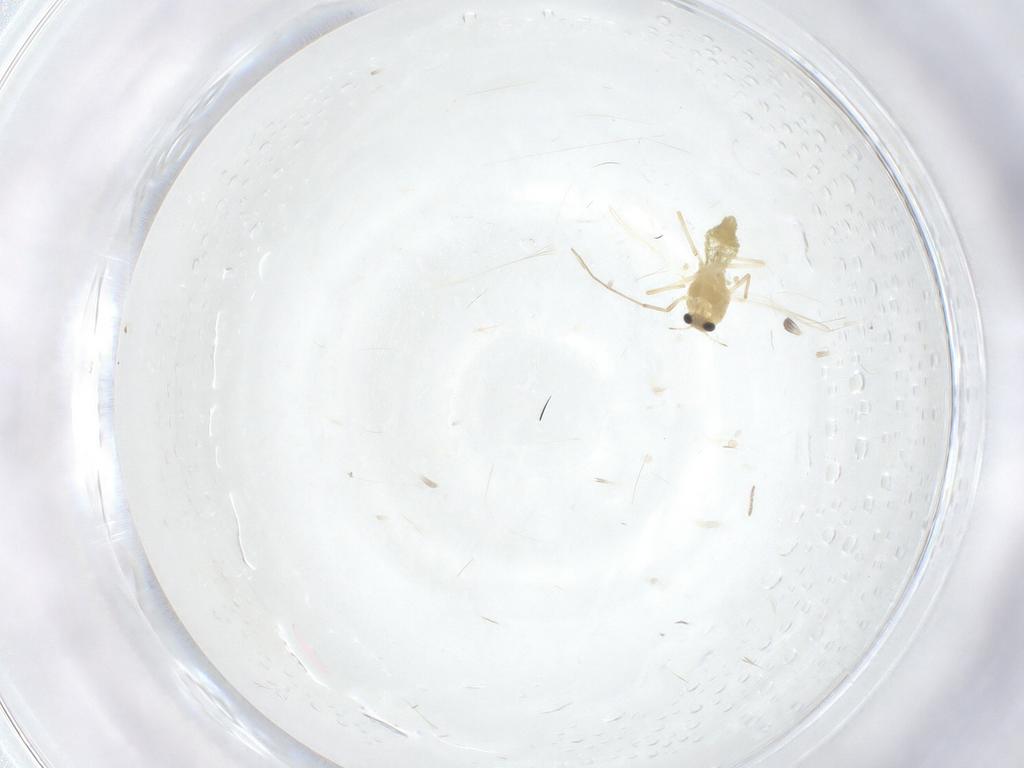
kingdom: Animalia
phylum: Arthropoda
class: Insecta
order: Diptera
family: Chironomidae
